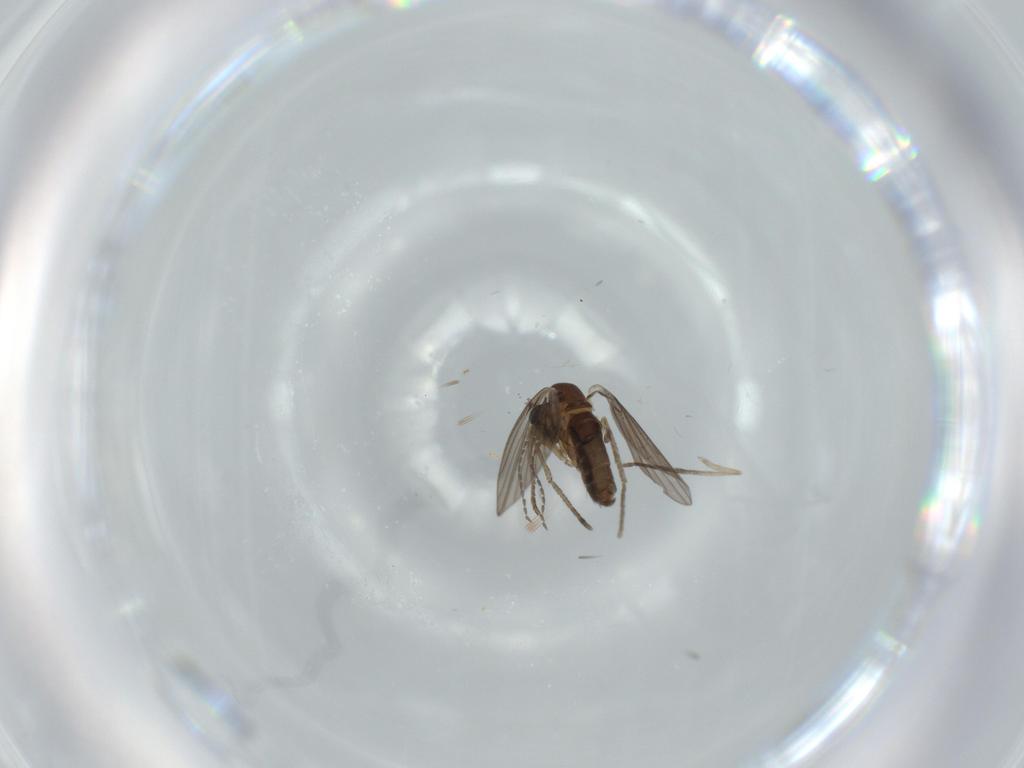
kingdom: Animalia
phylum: Arthropoda
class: Insecta
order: Diptera
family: Psychodidae
